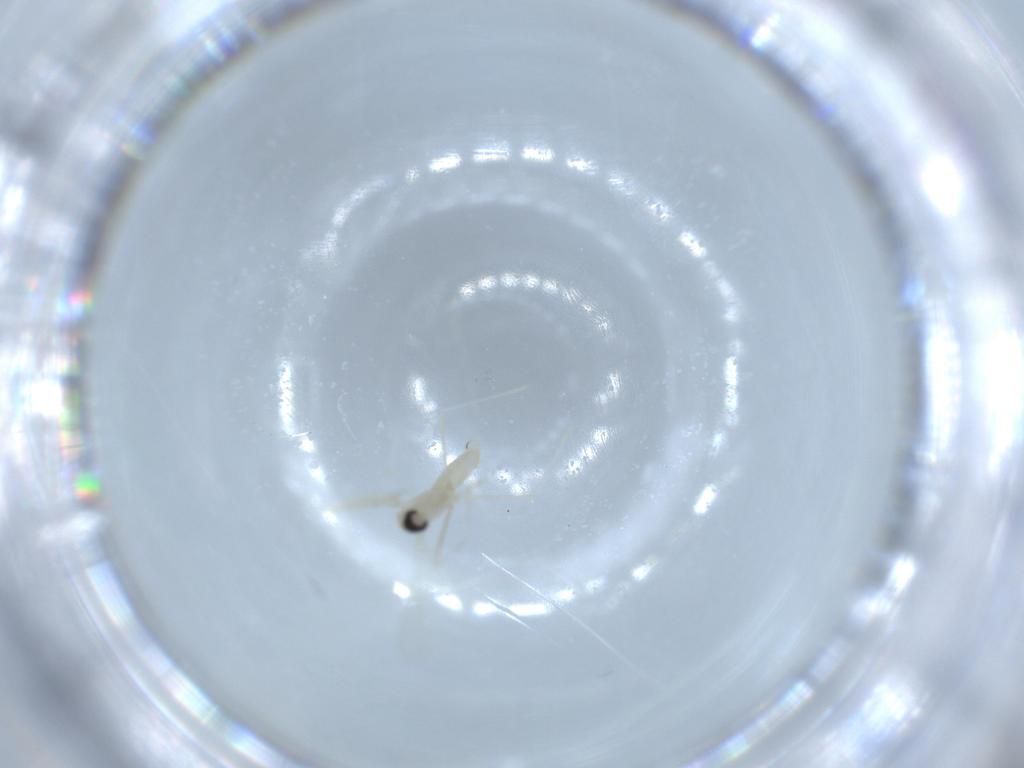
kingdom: Animalia
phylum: Arthropoda
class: Insecta
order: Diptera
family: Cecidomyiidae
